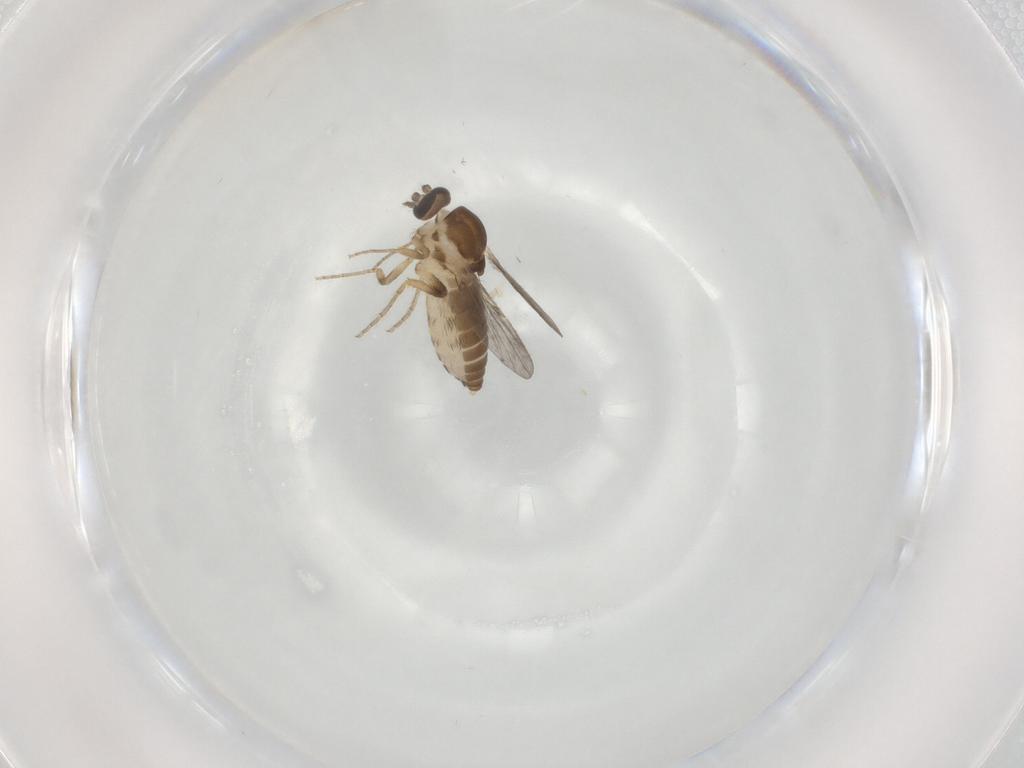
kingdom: Animalia
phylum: Arthropoda
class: Insecta
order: Diptera
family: Ceratopogonidae
